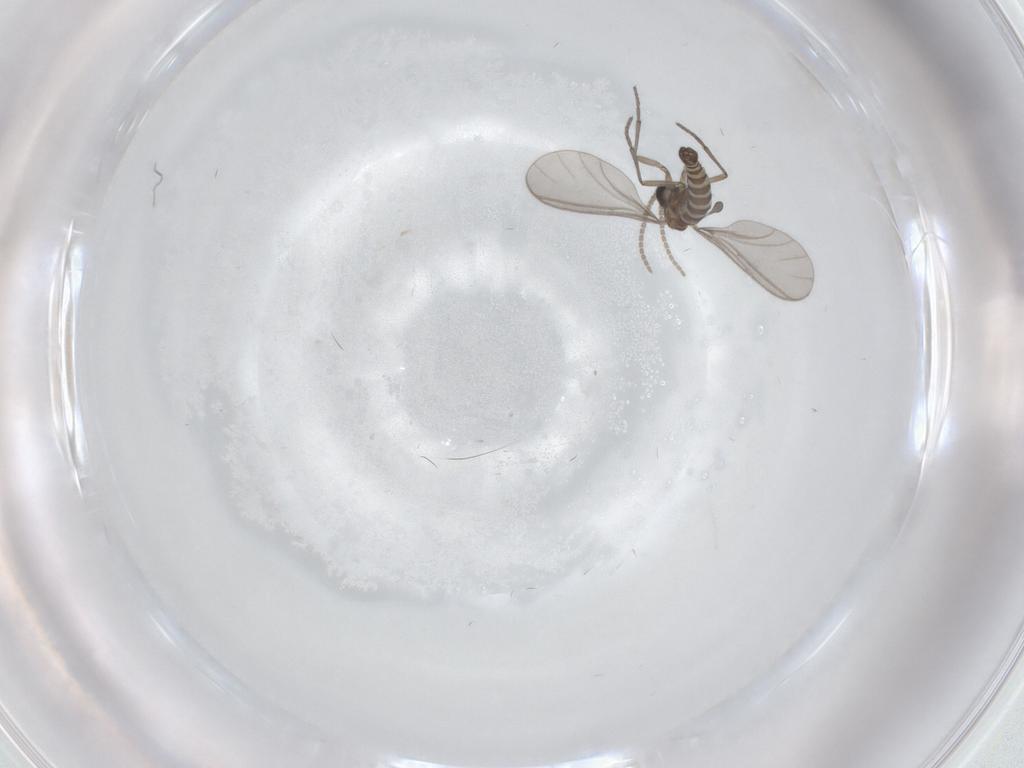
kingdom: Animalia
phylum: Arthropoda
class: Insecta
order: Diptera
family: Sciaridae
